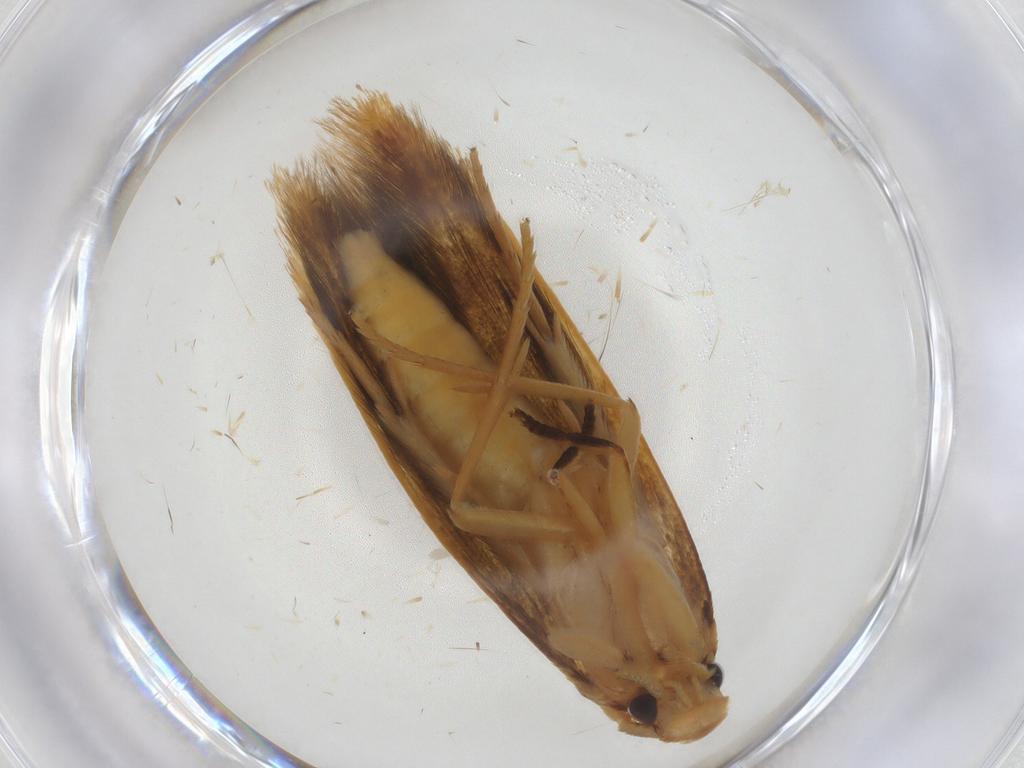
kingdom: Animalia
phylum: Arthropoda
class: Insecta
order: Lepidoptera
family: Tineidae
